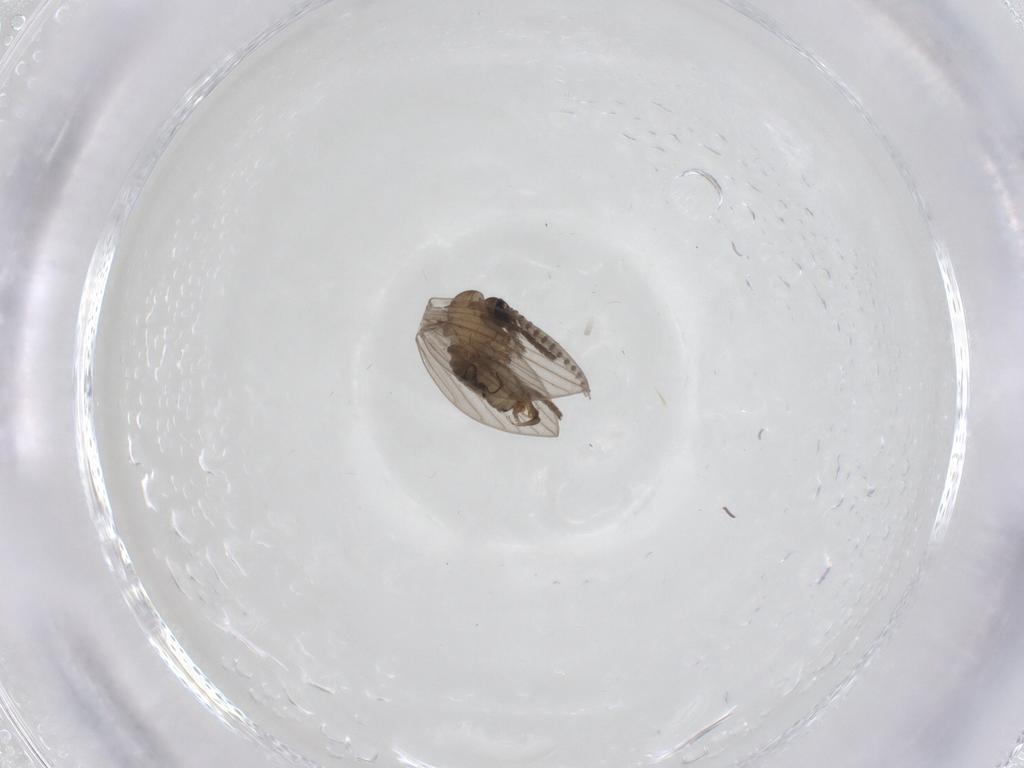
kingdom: Animalia
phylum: Arthropoda
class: Insecta
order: Diptera
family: Psychodidae
